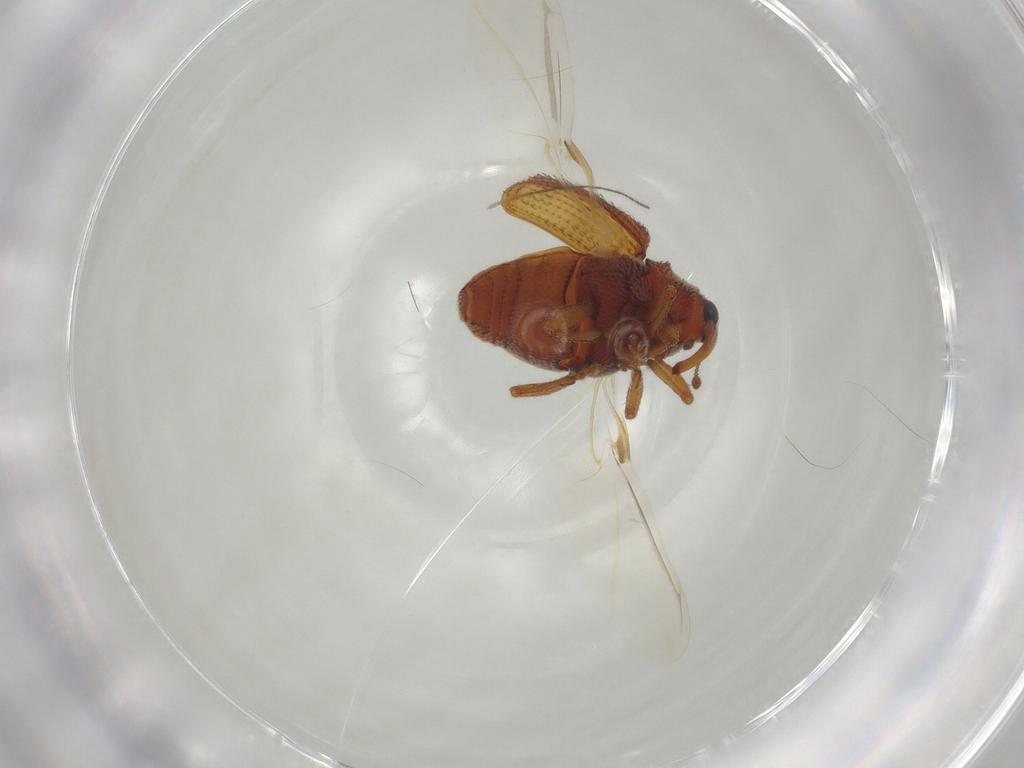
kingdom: Animalia
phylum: Arthropoda
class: Insecta
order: Coleoptera
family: Curculionidae
